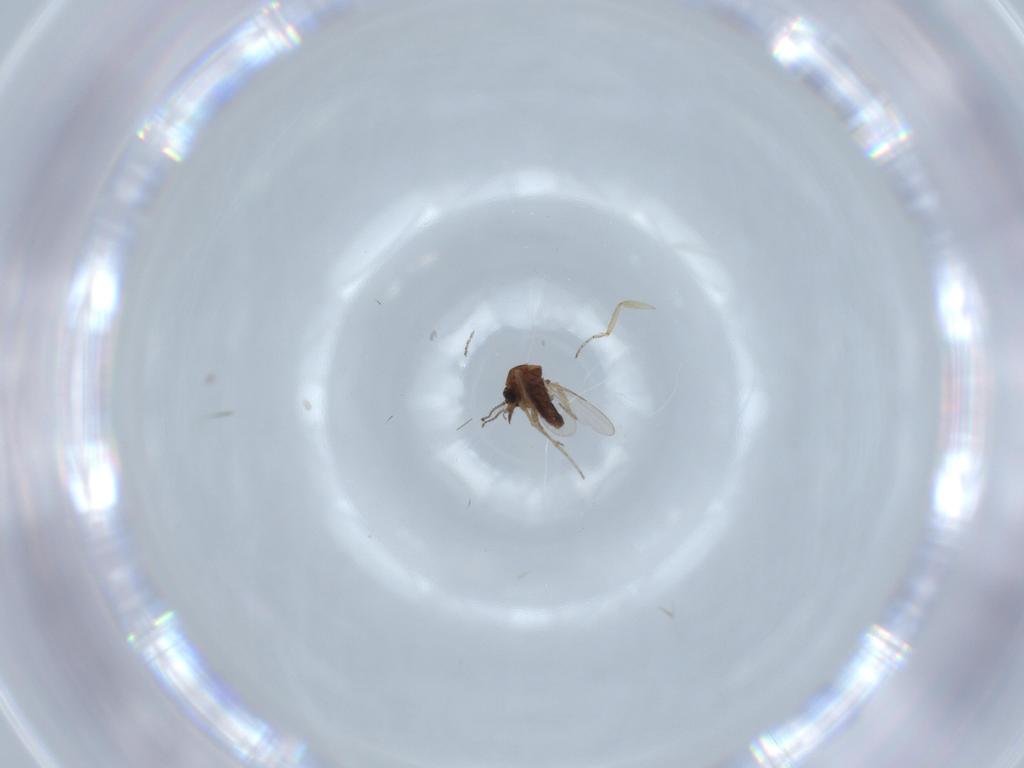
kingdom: Animalia
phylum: Arthropoda
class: Insecta
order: Diptera
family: Ceratopogonidae
